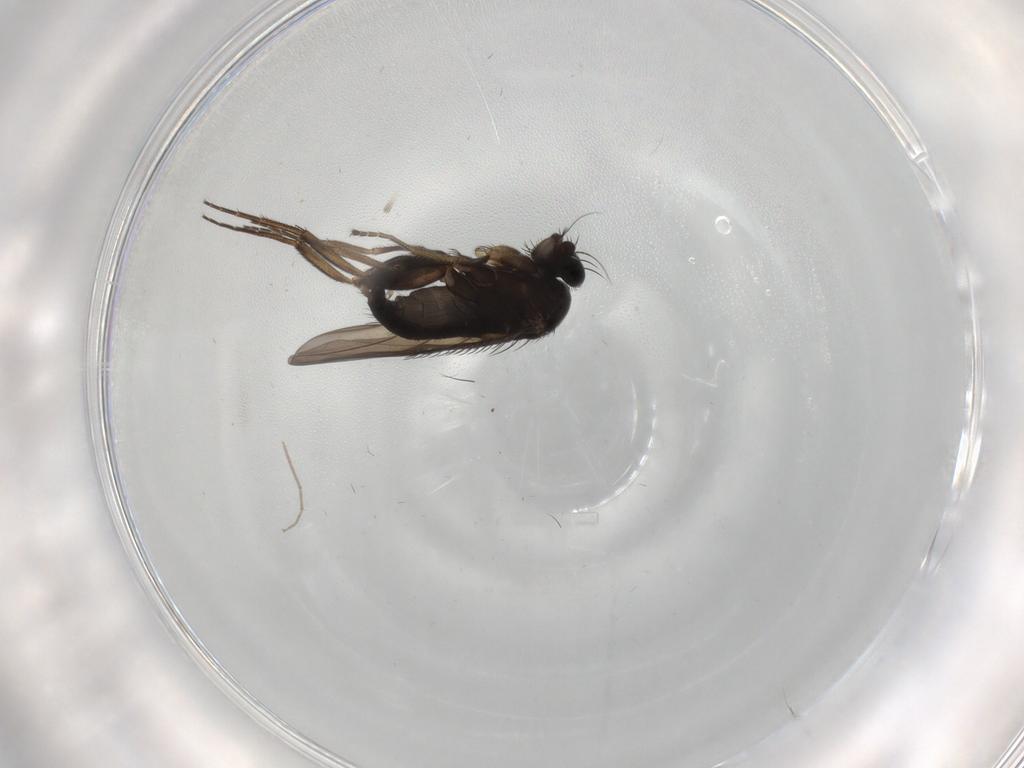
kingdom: Animalia
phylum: Arthropoda
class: Insecta
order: Diptera
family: Phoridae
